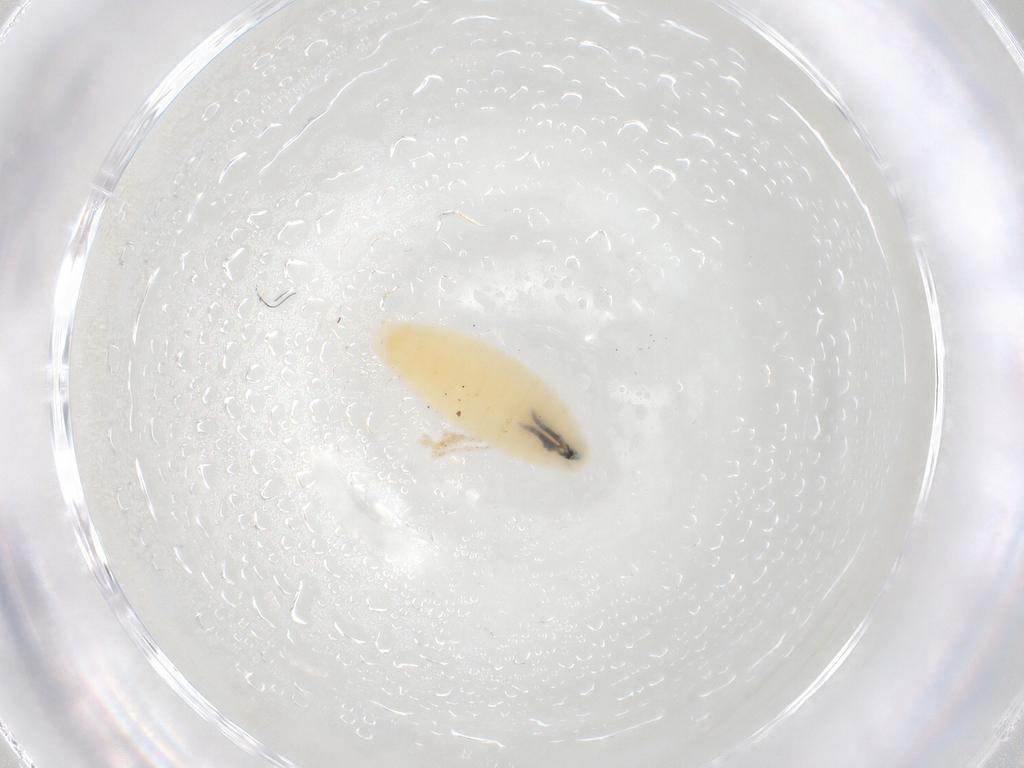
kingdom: Animalia
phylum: Arthropoda
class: Insecta
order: Diptera
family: Sarcophagidae
